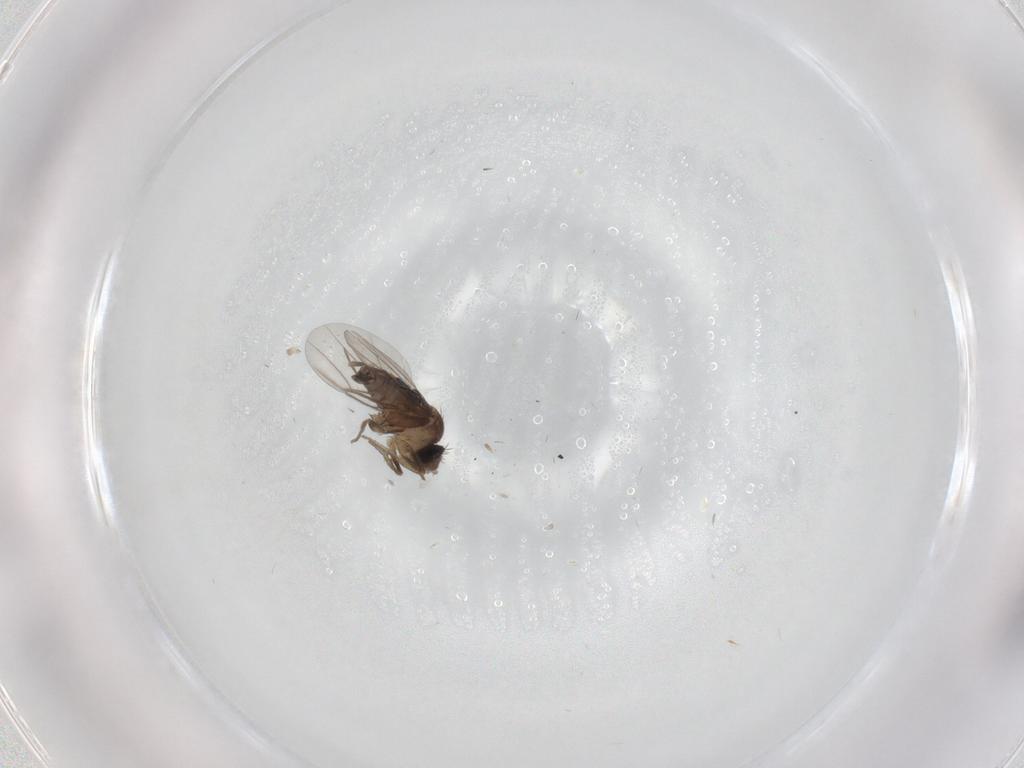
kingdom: Animalia
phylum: Arthropoda
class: Insecta
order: Diptera
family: Phoridae
